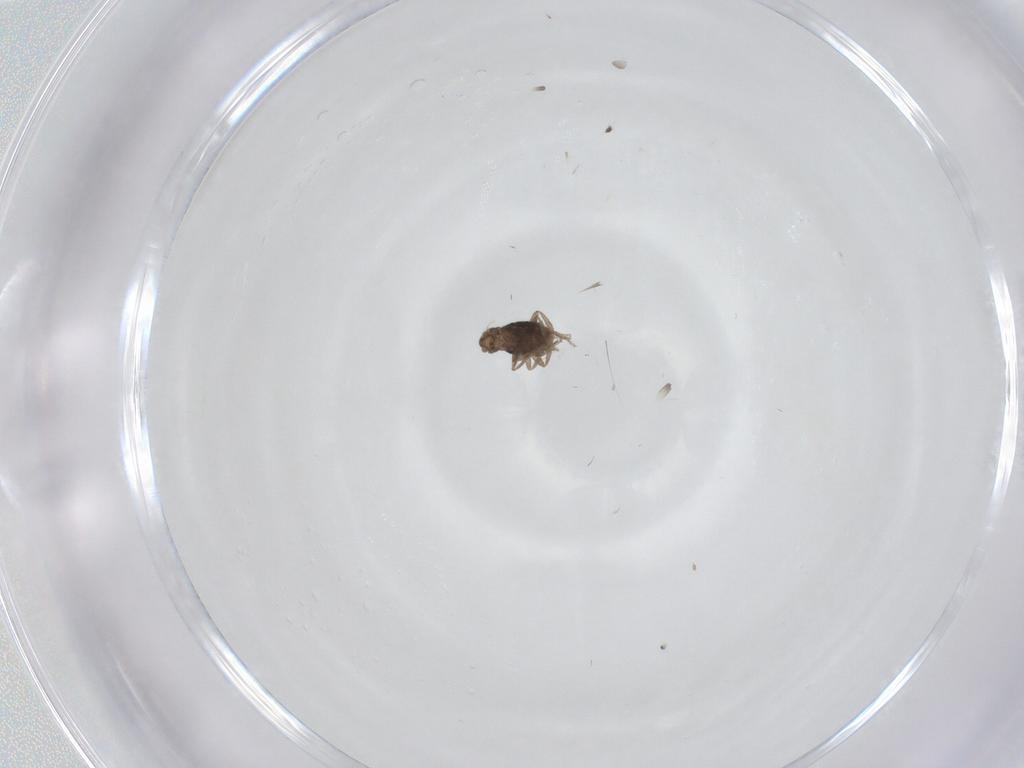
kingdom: Animalia
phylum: Arthropoda
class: Insecta
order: Diptera
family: Phoridae
